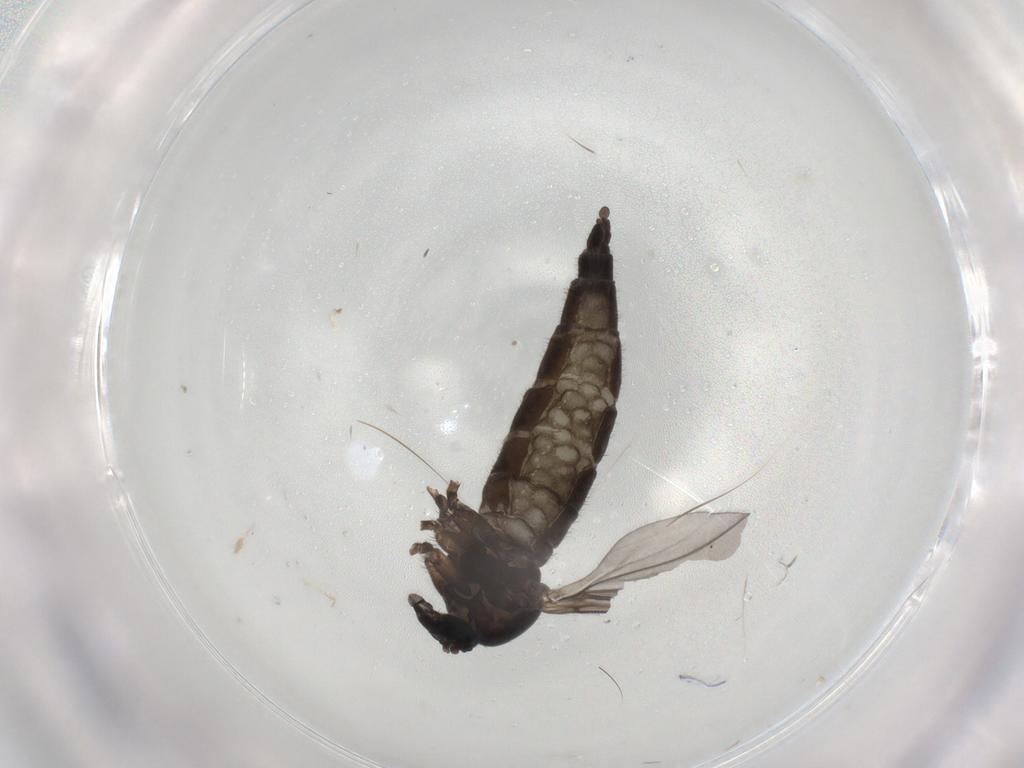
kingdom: Animalia
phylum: Arthropoda
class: Insecta
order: Diptera
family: Sciaridae
